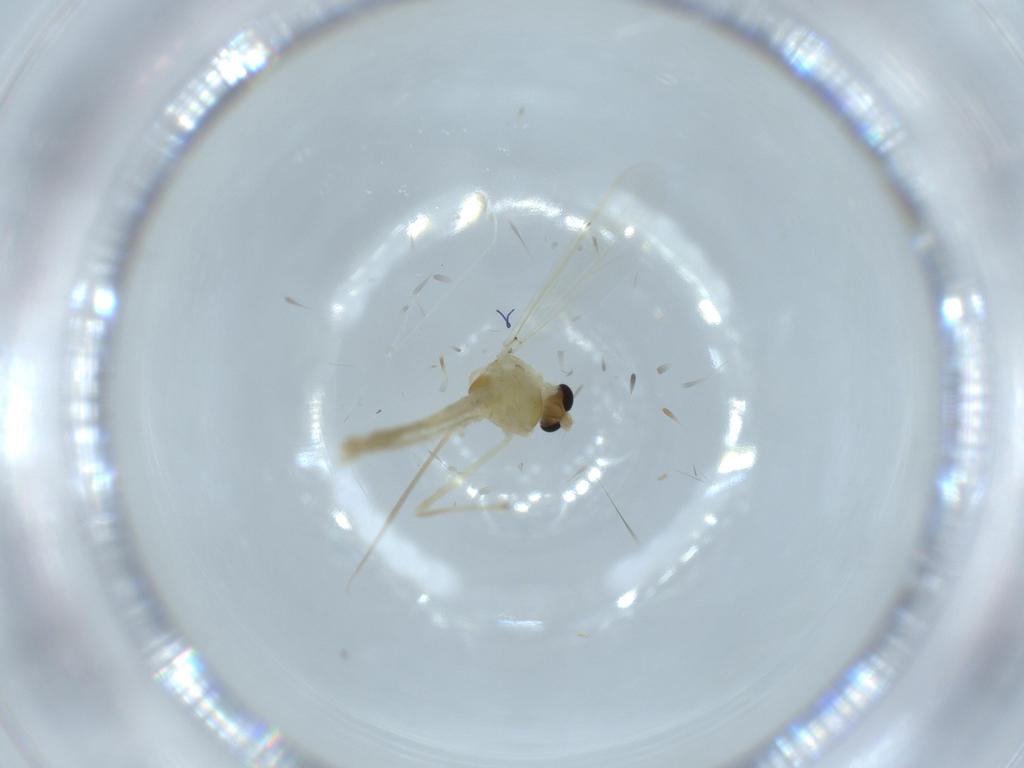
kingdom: Animalia
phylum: Arthropoda
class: Insecta
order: Diptera
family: Chironomidae
